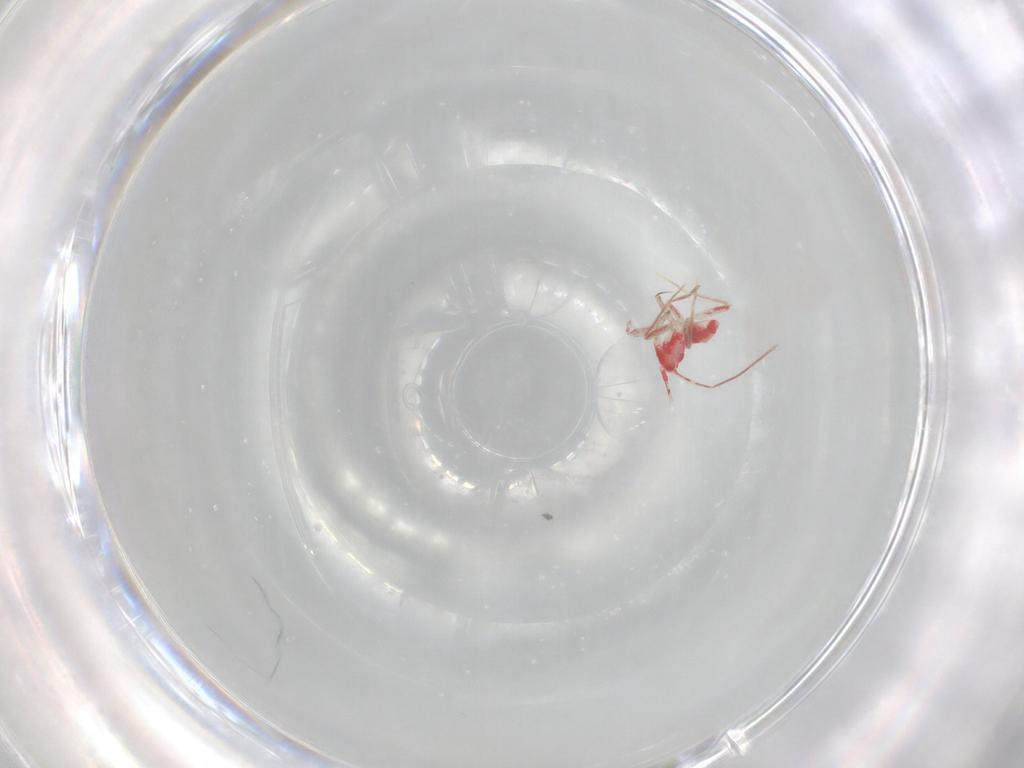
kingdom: Animalia
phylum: Arthropoda
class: Insecta
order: Hemiptera
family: Miridae
